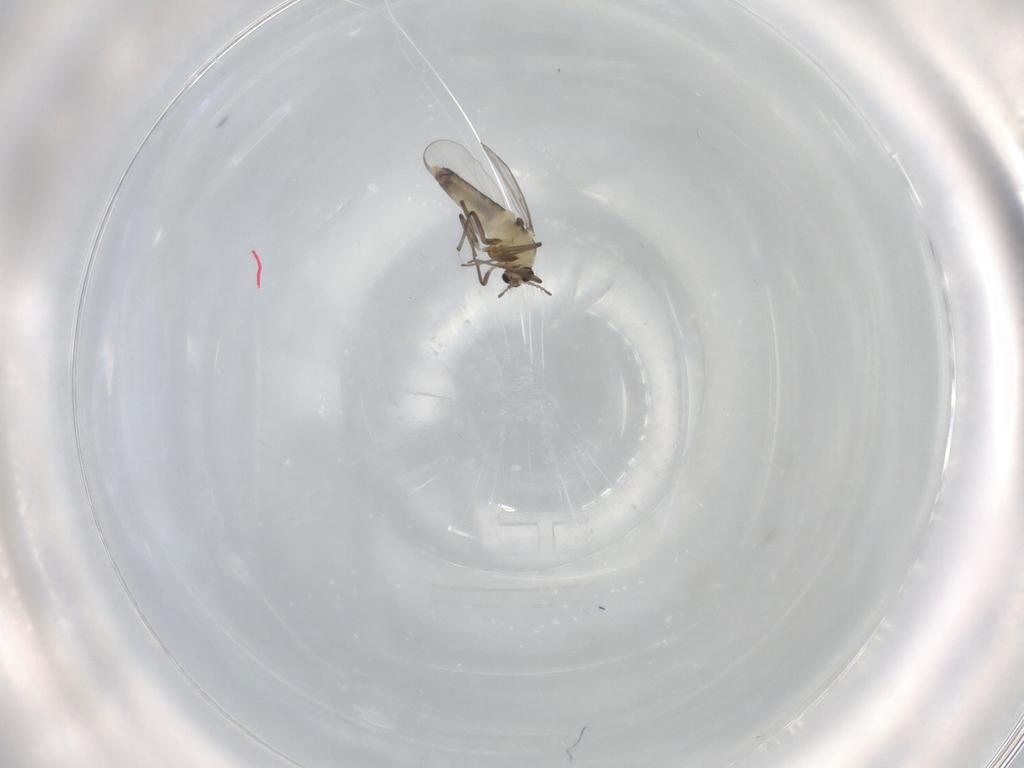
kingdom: Animalia
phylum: Arthropoda
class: Insecta
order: Diptera
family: Chironomidae
